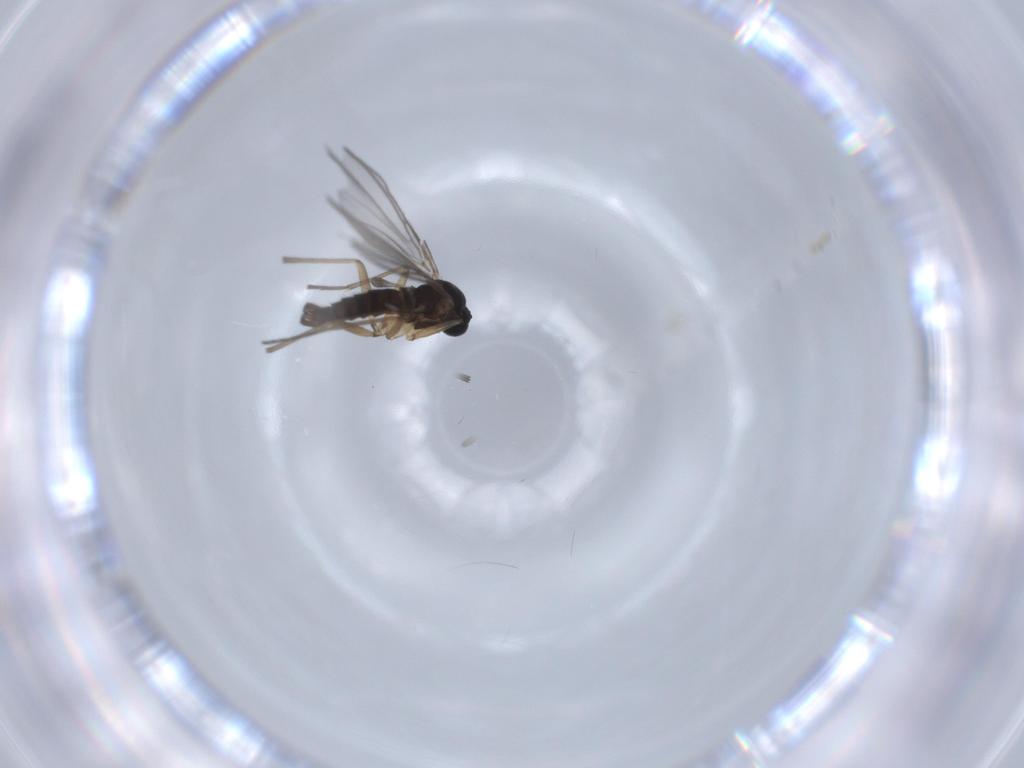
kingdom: Animalia
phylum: Arthropoda
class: Insecta
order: Diptera
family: Sciaridae
